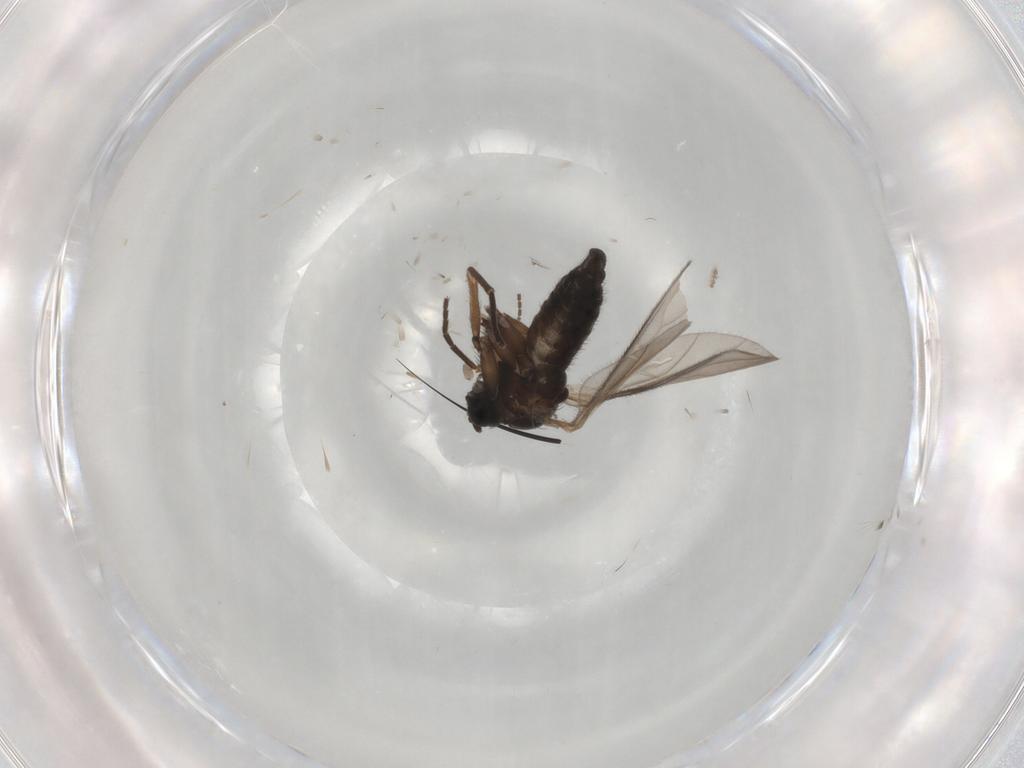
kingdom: Animalia
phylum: Arthropoda
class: Insecta
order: Diptera
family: Sciaridae
